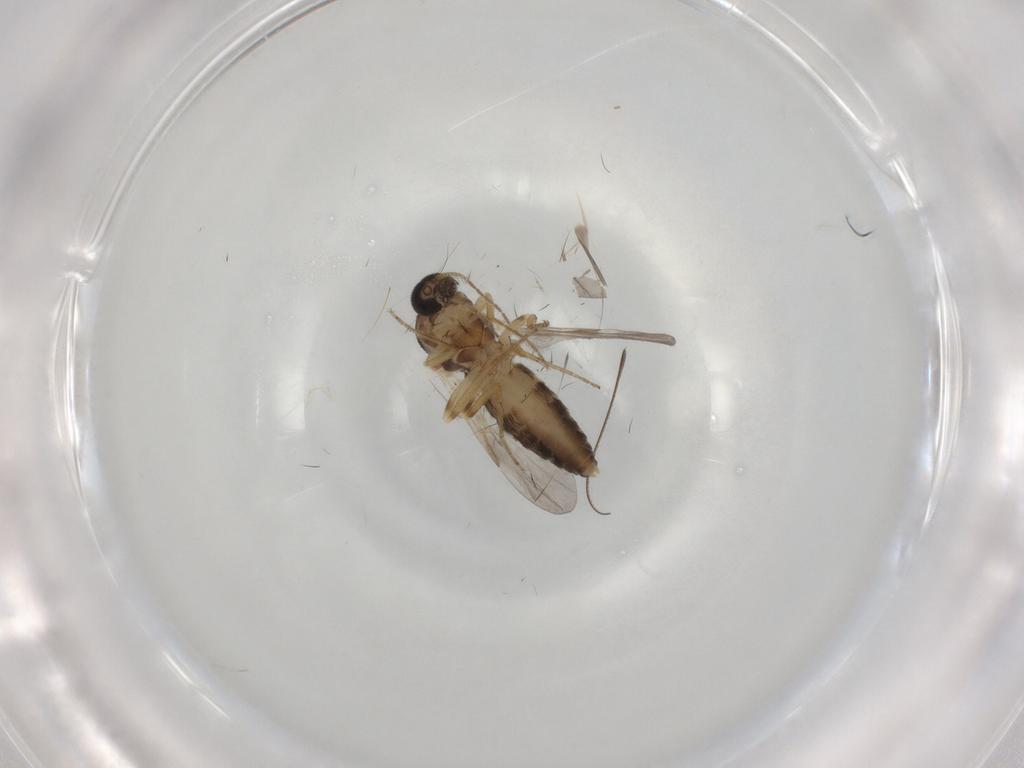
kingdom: Animalia
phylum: Arthropoda
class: Insecta
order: Diptera
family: Ceratopogonidae
